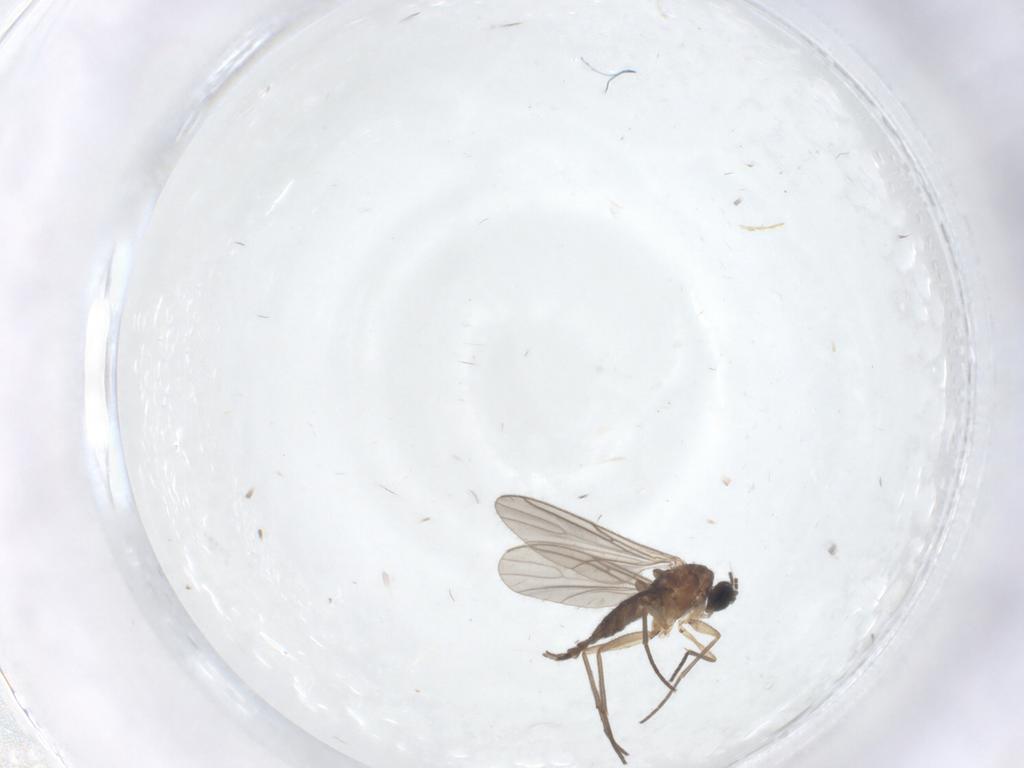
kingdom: Animalia
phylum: Arthropoda
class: Insecta
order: Diptera
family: Sciaridae
